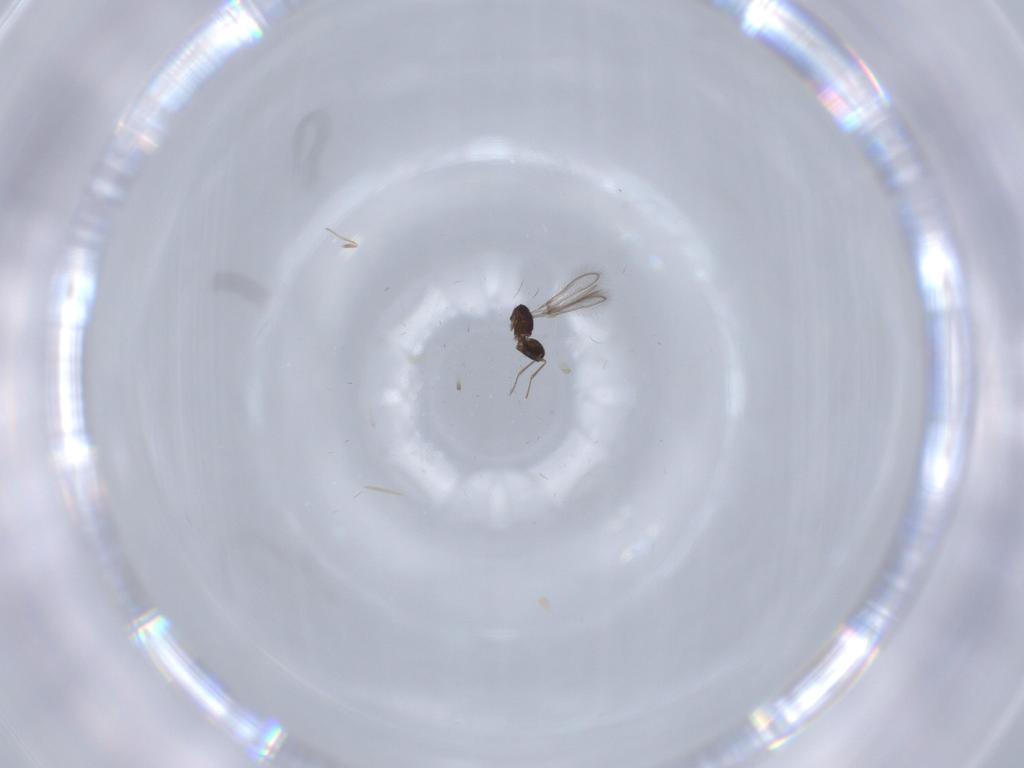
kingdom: Animalia
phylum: Arthropoda
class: Insecta
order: Hymenoptera
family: Mymaridae
